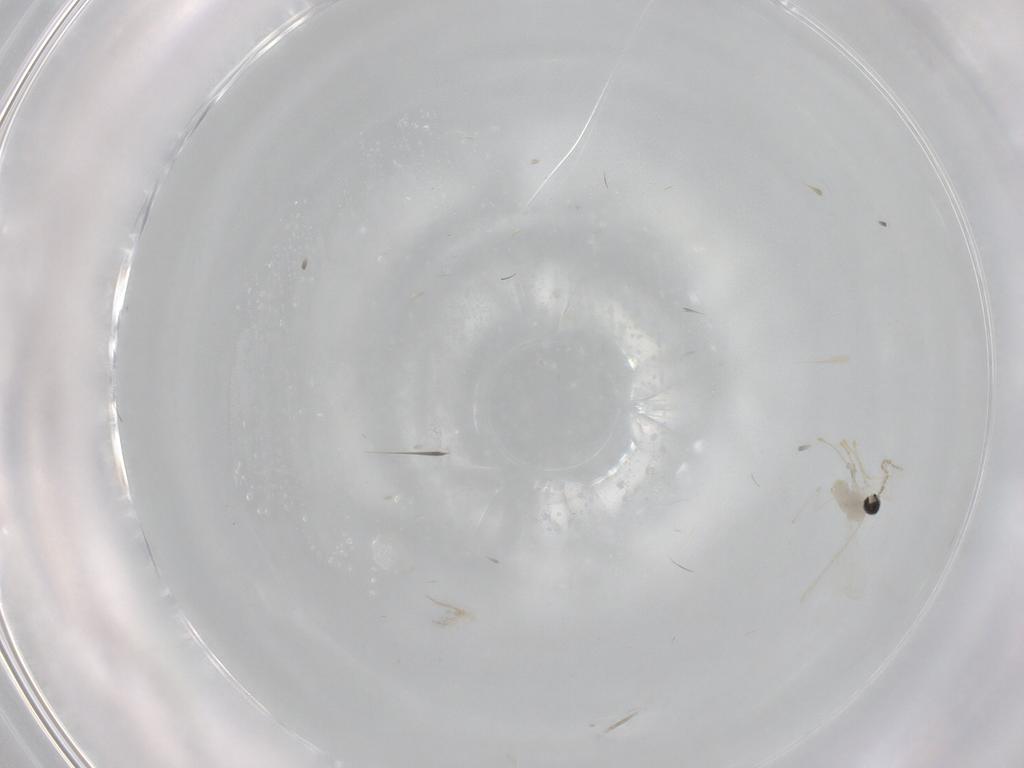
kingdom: Animalia
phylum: Arthropoda
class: Insecta
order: Diptera
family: Cecidomyiidae
